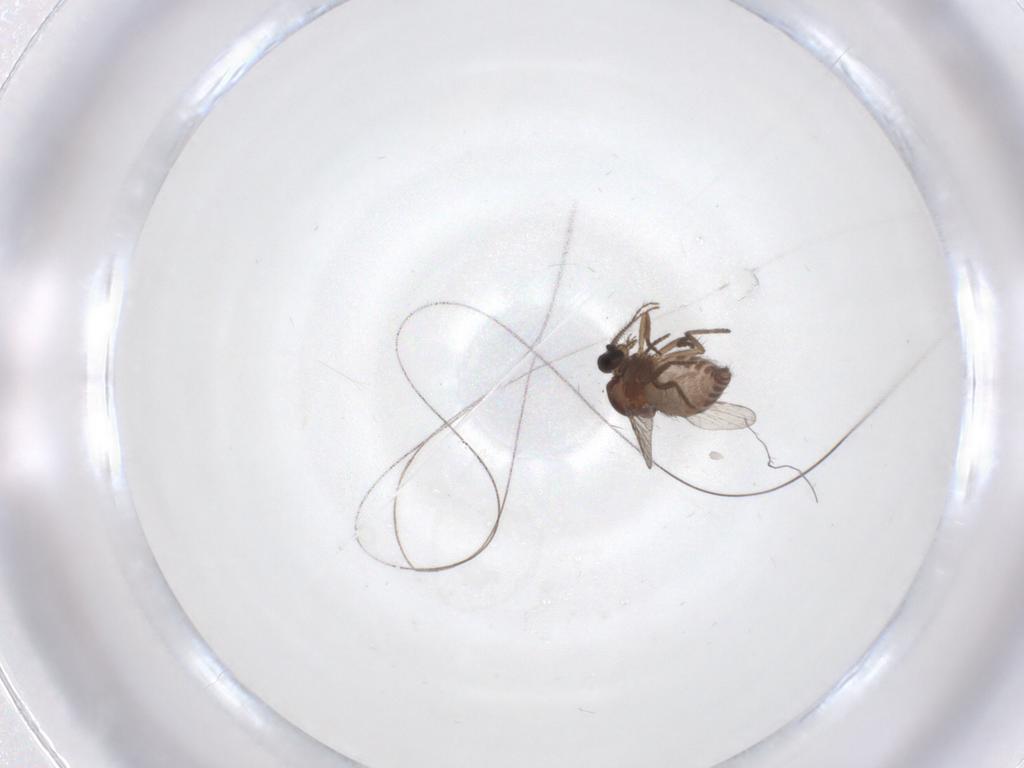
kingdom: Animalia
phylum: Arthropoda
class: Insecta
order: Diptera
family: Ceratopogonidae
